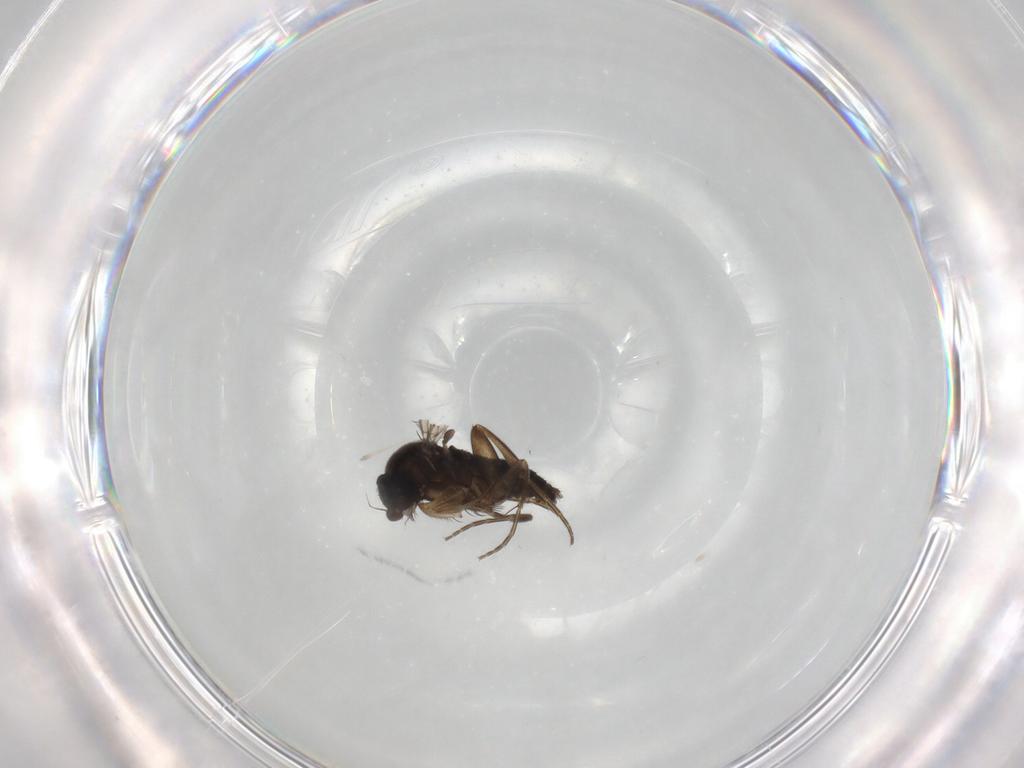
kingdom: Animalia
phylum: Arthropoda
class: Insecta
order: Diptera
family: Phoridae
